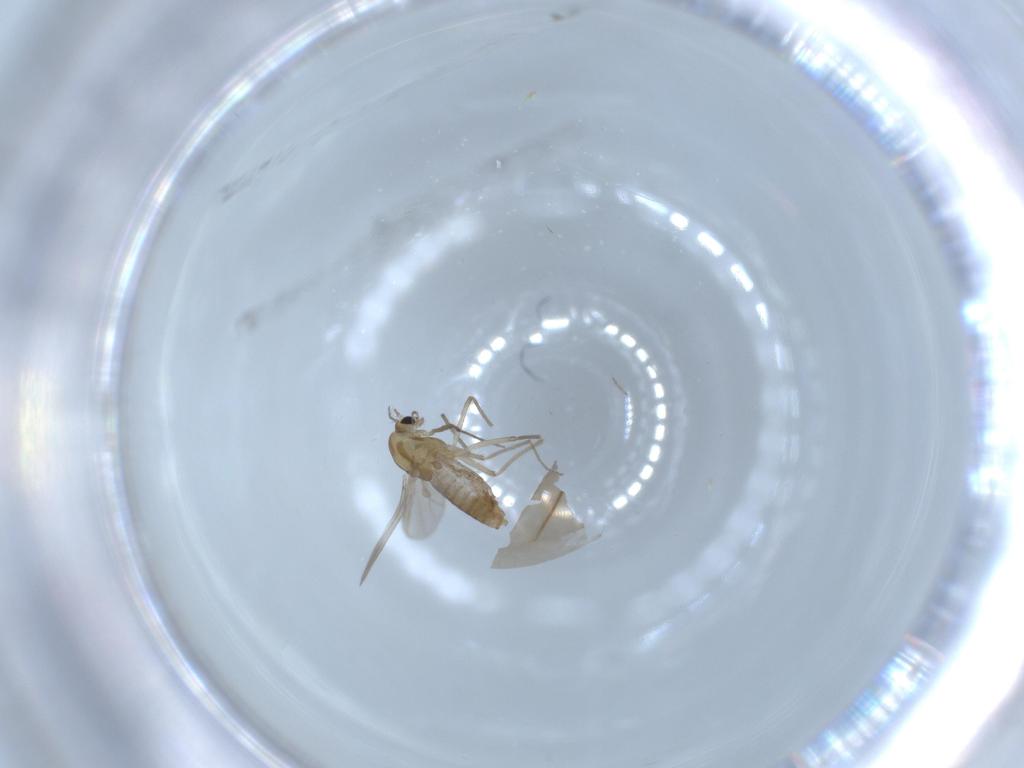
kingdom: Animalia
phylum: Arthropoda
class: Insecta
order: Diptera
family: Chironomidae
